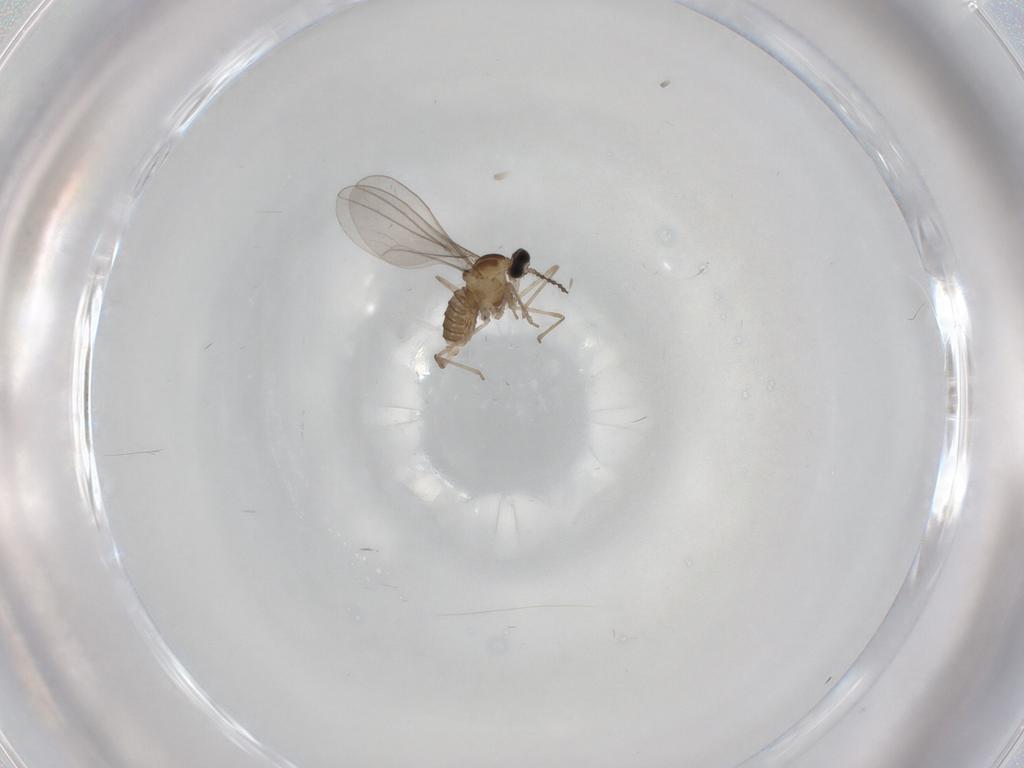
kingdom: Animalia
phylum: Arthropoda
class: Insecta
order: Diptera
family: Cecidomyiidae
